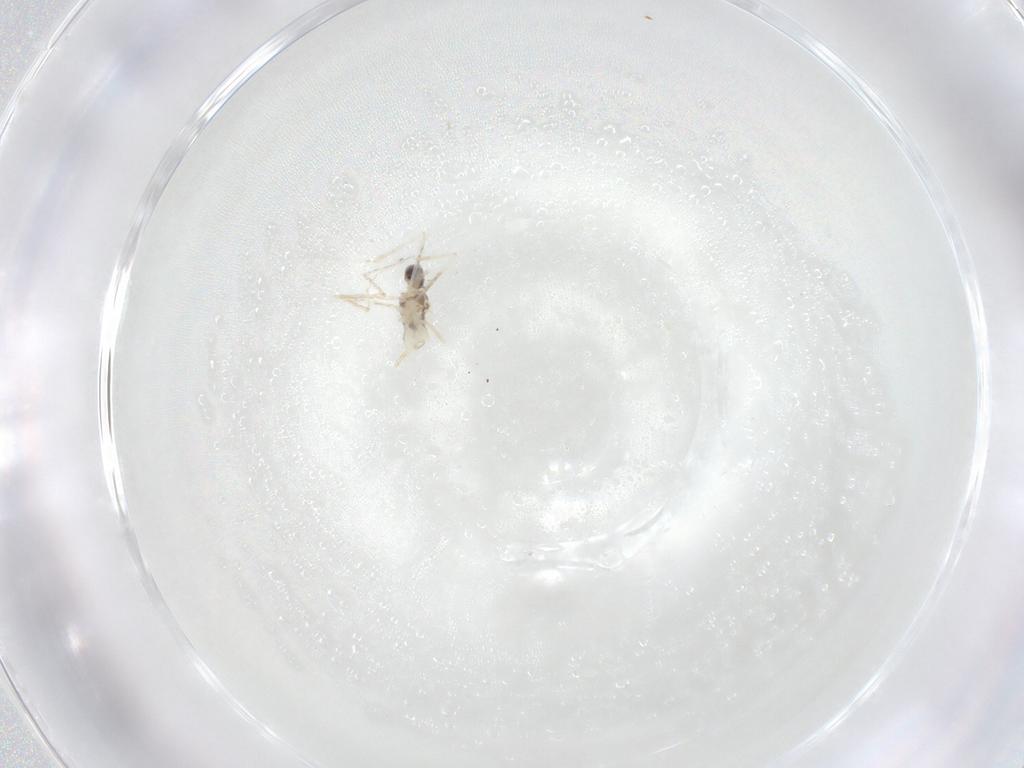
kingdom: Animalia
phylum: Arthropoda
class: Insecta
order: Diptera
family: Cecidomyiidae
